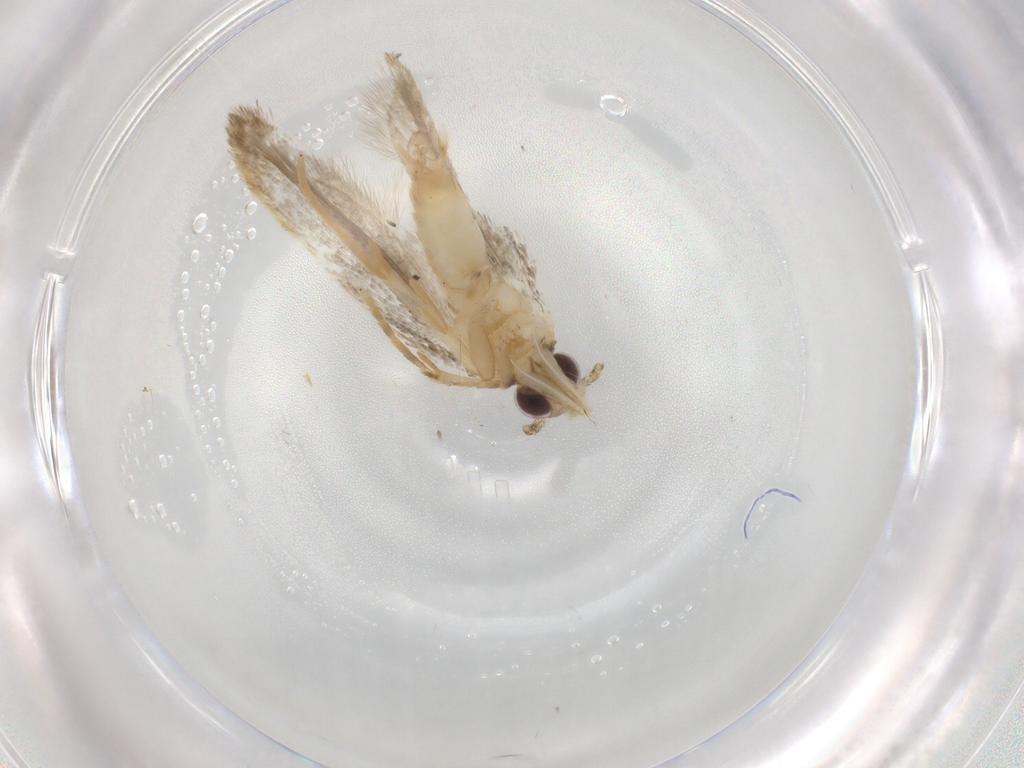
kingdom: Animalia
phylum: Arthropoda
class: Insecta
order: Lepidoptera
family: Autostichidae
